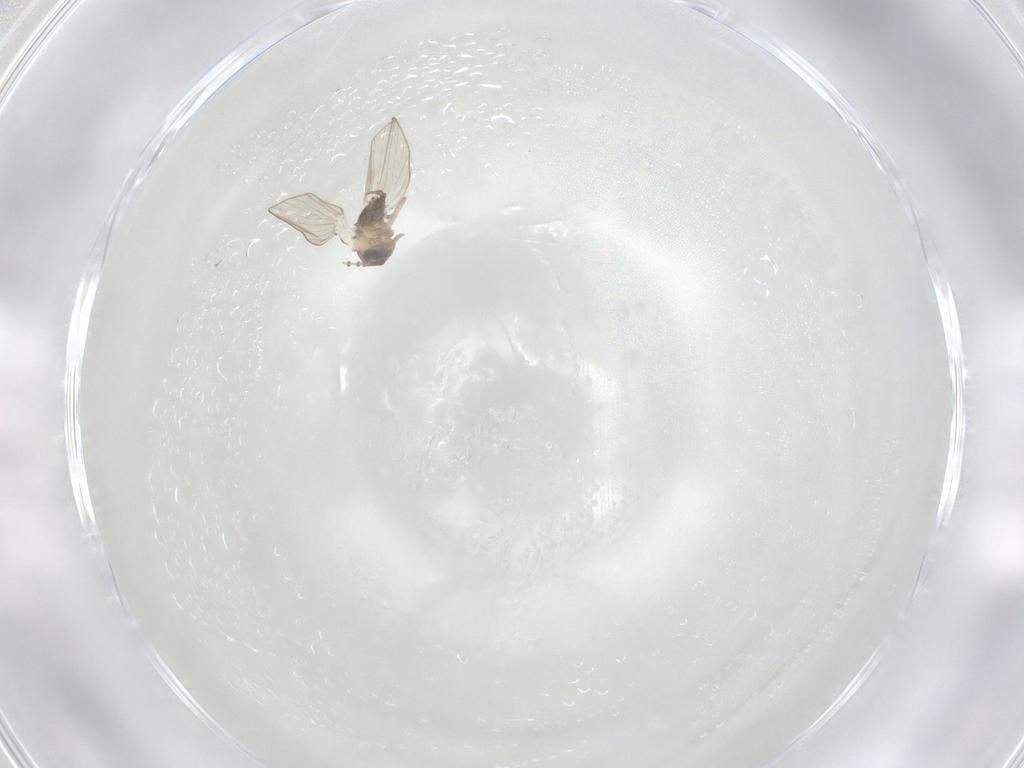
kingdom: Animalia
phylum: Arthropoda
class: Insecta
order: Diptera
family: Psychodidae
